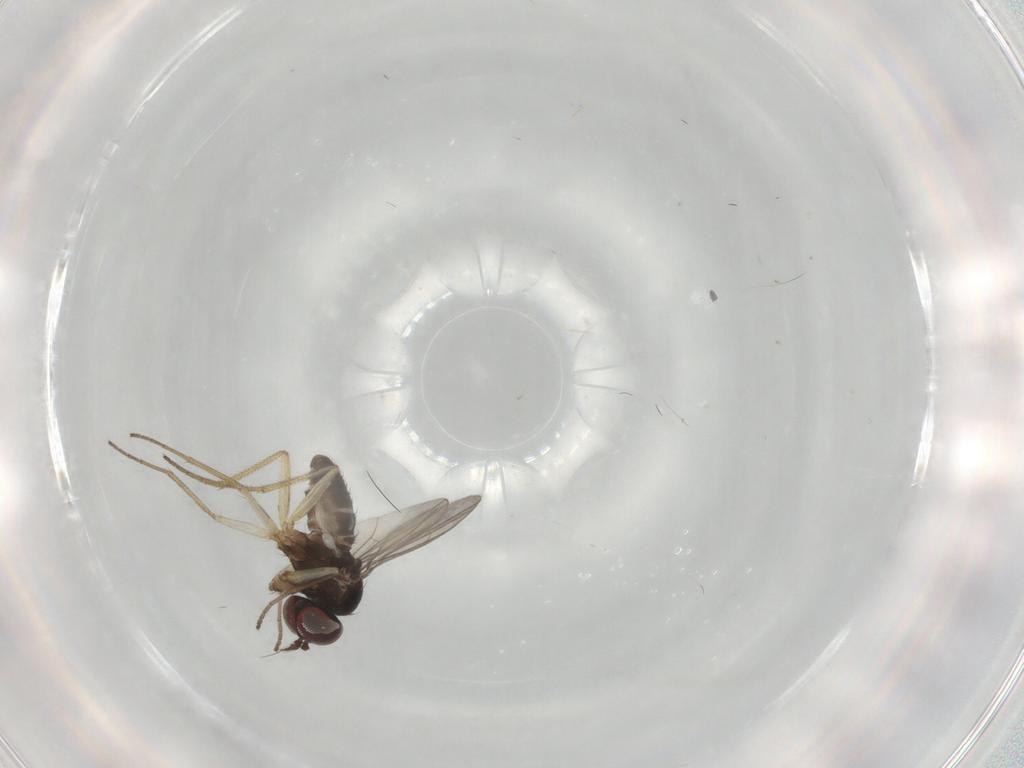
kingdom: Animalia
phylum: Arthropoda
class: Insecta
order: Diptera
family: Dolichopodidae
